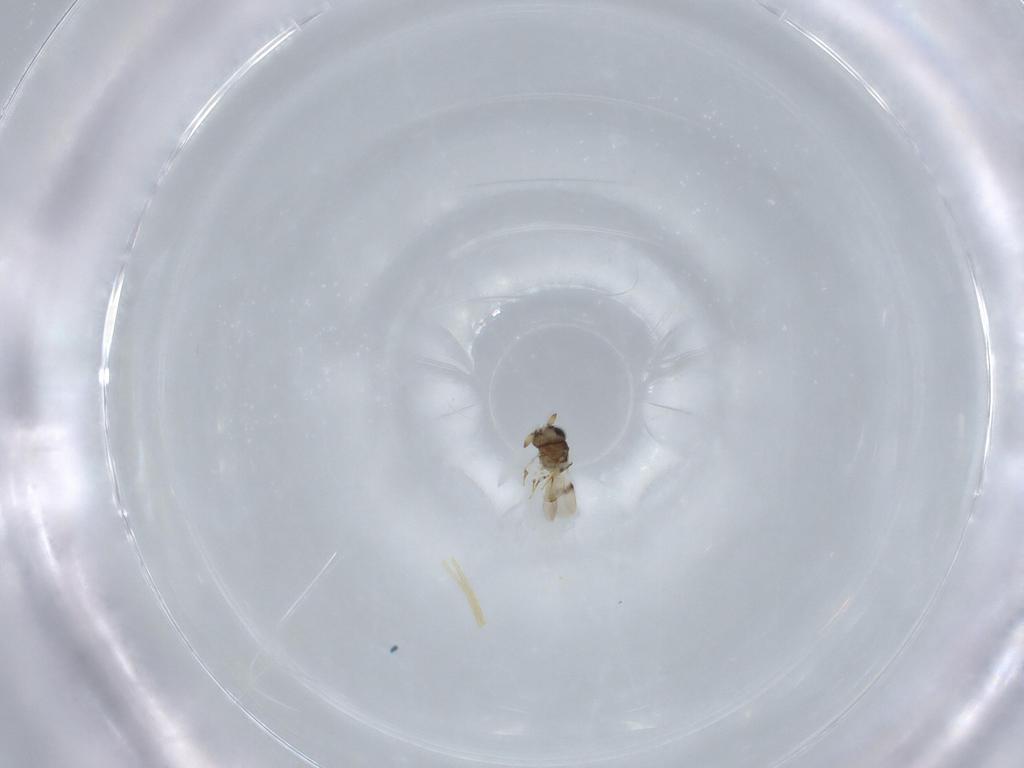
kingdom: Animalia
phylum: Arthropoda
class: Insecta
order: Hymenoptera
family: Scelionidae
